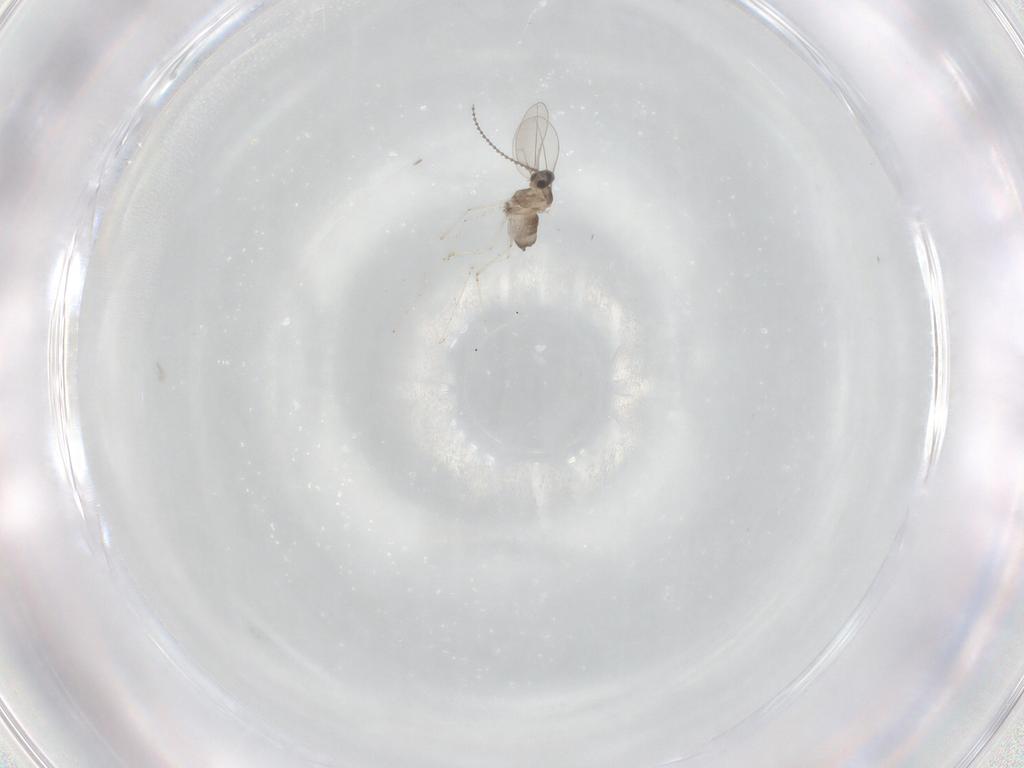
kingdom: Animalia
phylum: Arthropoda
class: Insecta
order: Diptera
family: Cecidomyiidae
